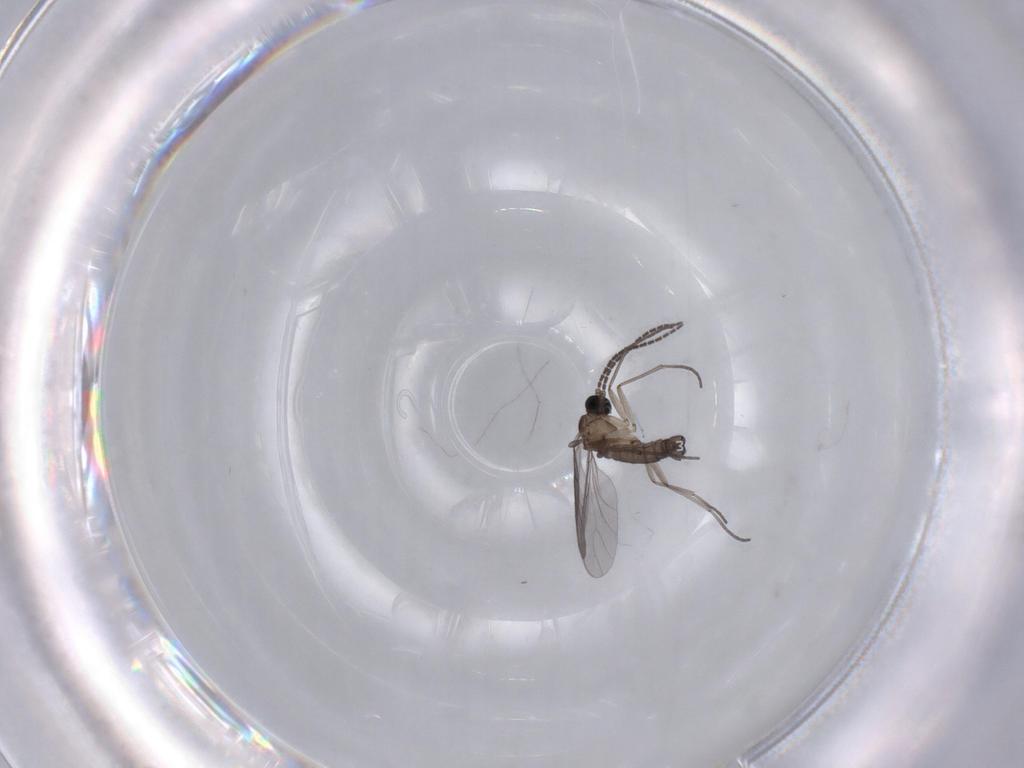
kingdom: Animalia
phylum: Arthropoda
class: Insecta
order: Diptera
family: Sciaridae
